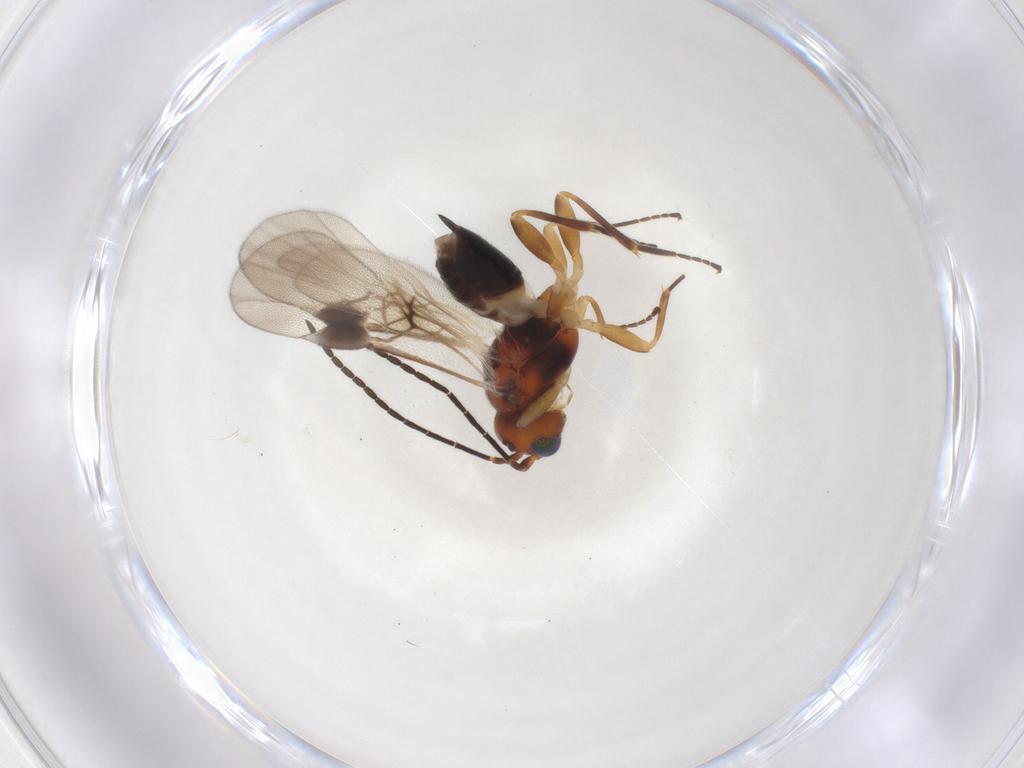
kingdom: Animalia
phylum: Arthropoda
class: Insecta
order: Hymenoptera
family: Braconidae
